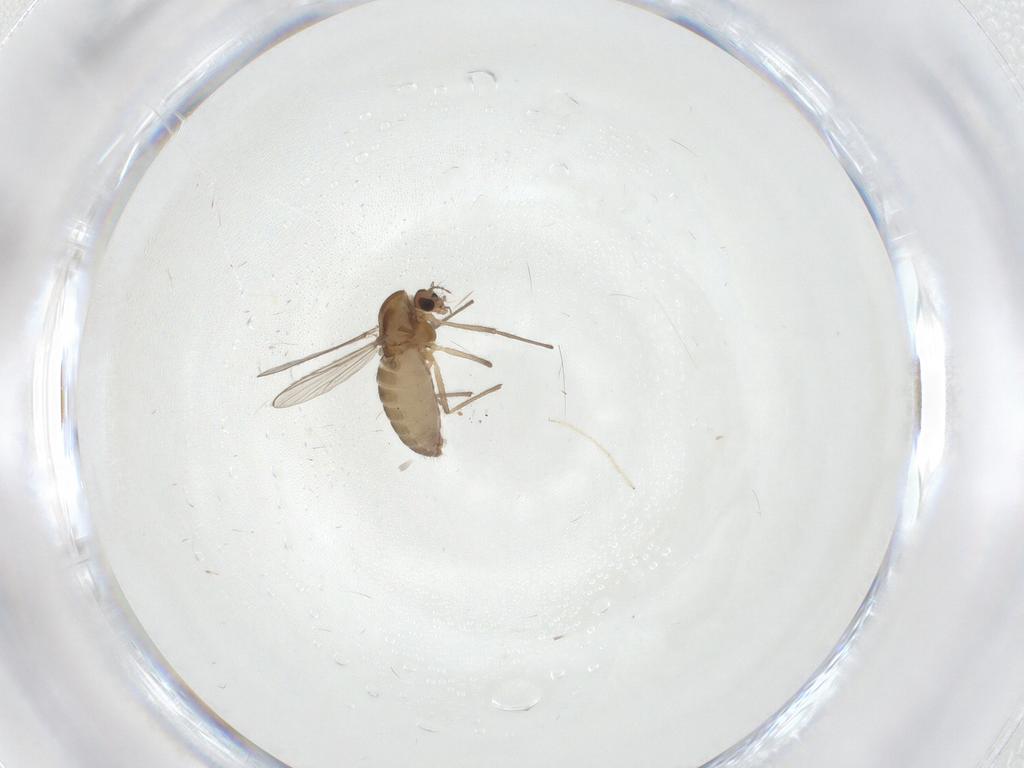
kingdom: Animalia
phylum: Arthropoda
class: Insecta
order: Diptera
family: Chironomidae
